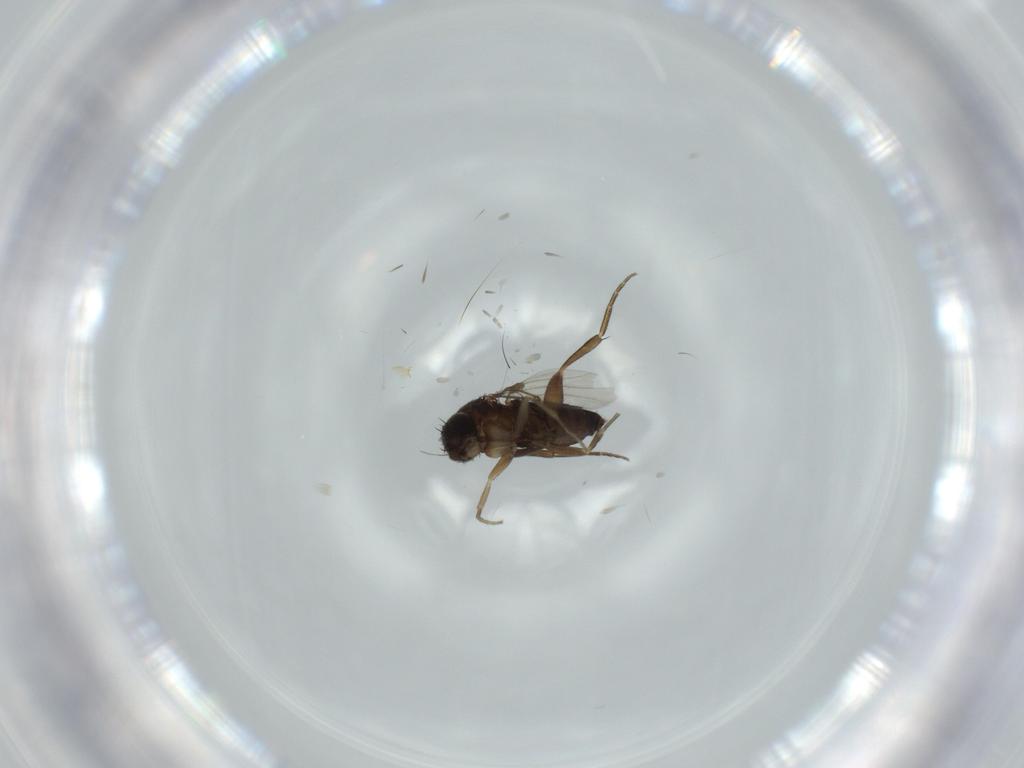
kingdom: Animalia
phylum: Arthropoda
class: Insecta
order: Diptera
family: Phoridae
